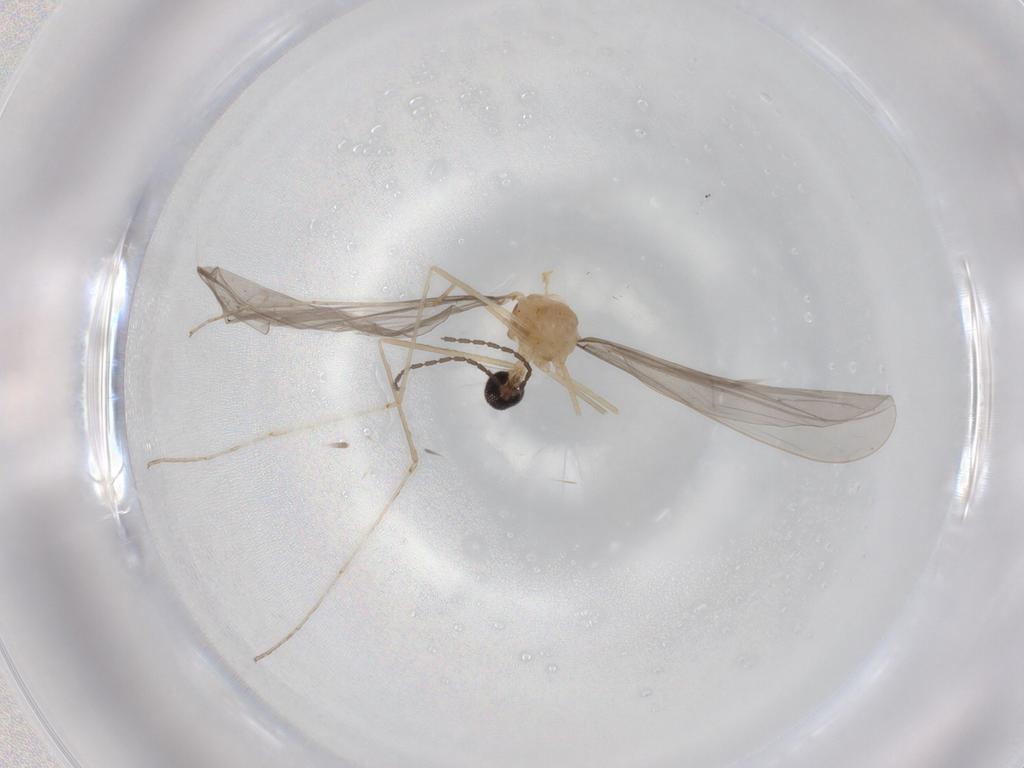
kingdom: Animalia
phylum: Arthropoda
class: Insecta
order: Diptera
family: Cecidomyiidae
